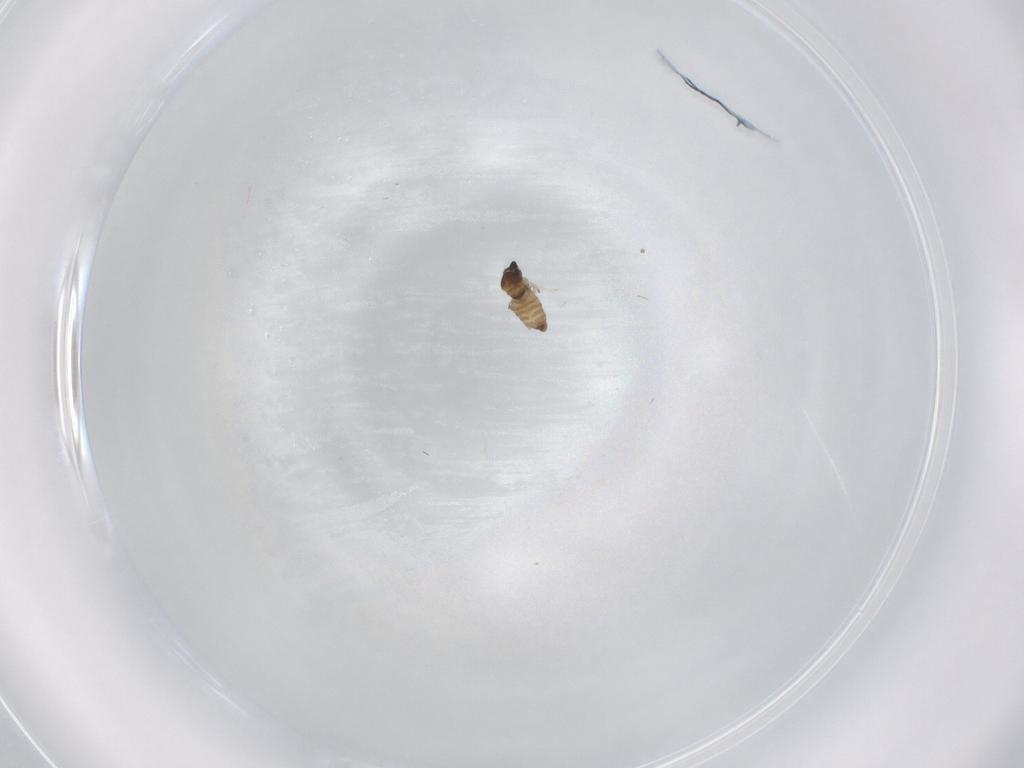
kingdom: Animalia
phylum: Arthropoda
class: Insecta
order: Diptera
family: Cecidomyiidae
